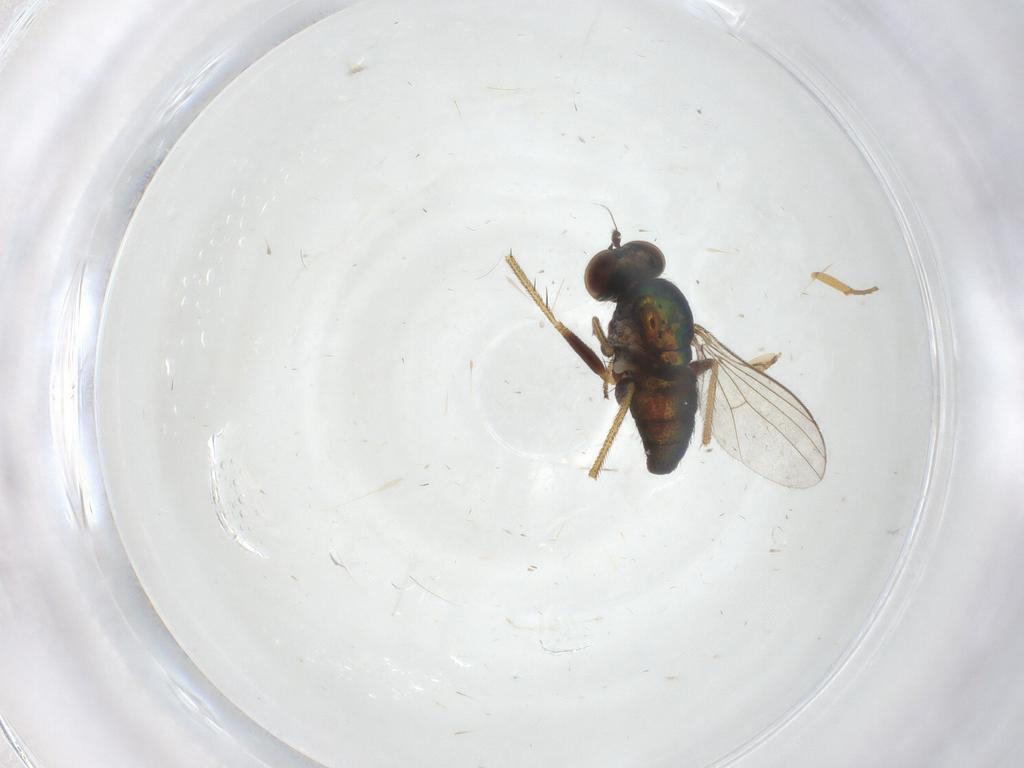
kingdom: Animalia
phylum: Arthropoda
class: Insecta
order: Diptera
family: Ceratopogonidae
